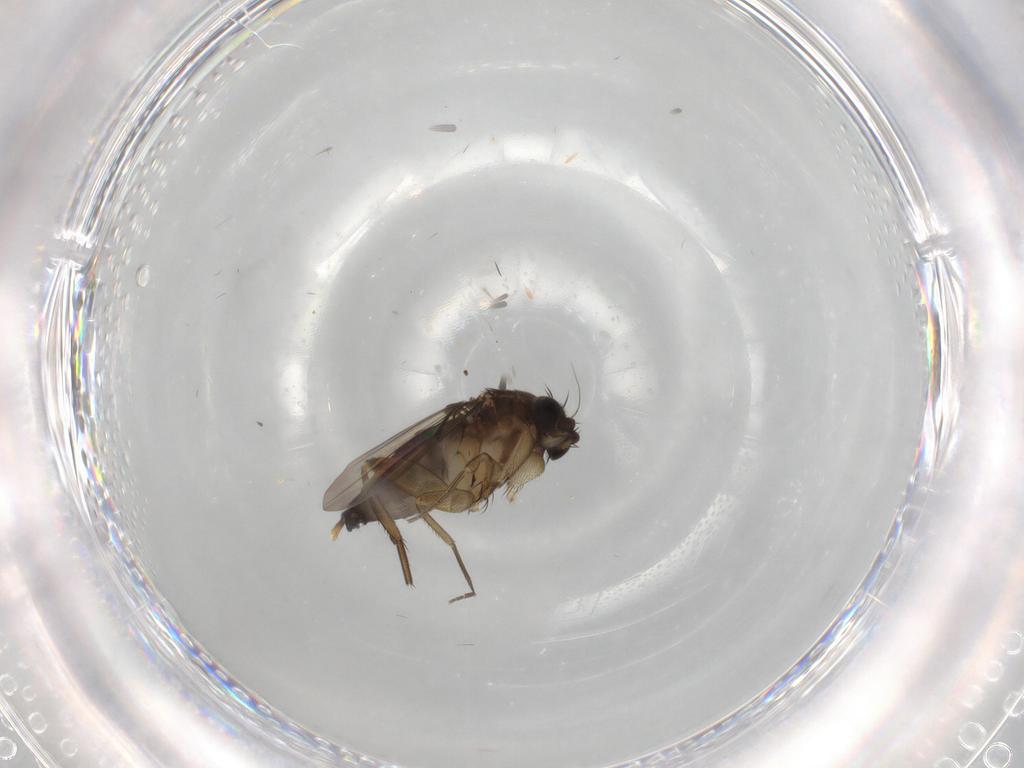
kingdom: Animalia
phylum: Arthropoda
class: Insecta
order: Diptera
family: Phoridae
